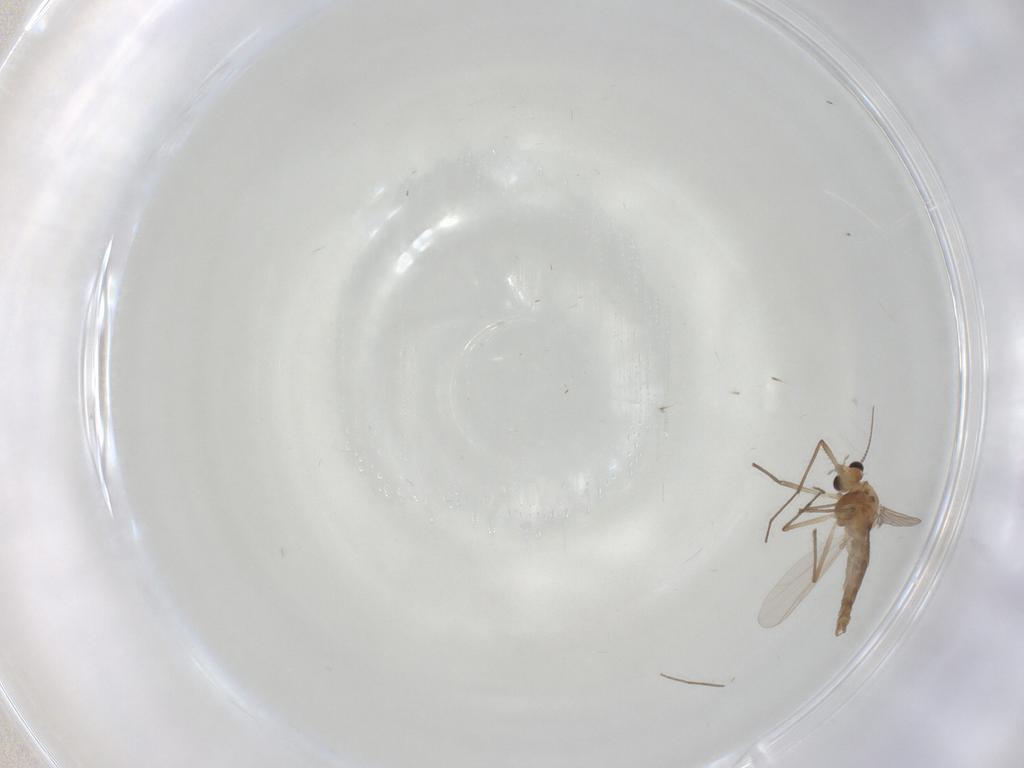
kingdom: Animalia
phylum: Arthropoda
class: Insecta
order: Diptera
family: Chironomidae
